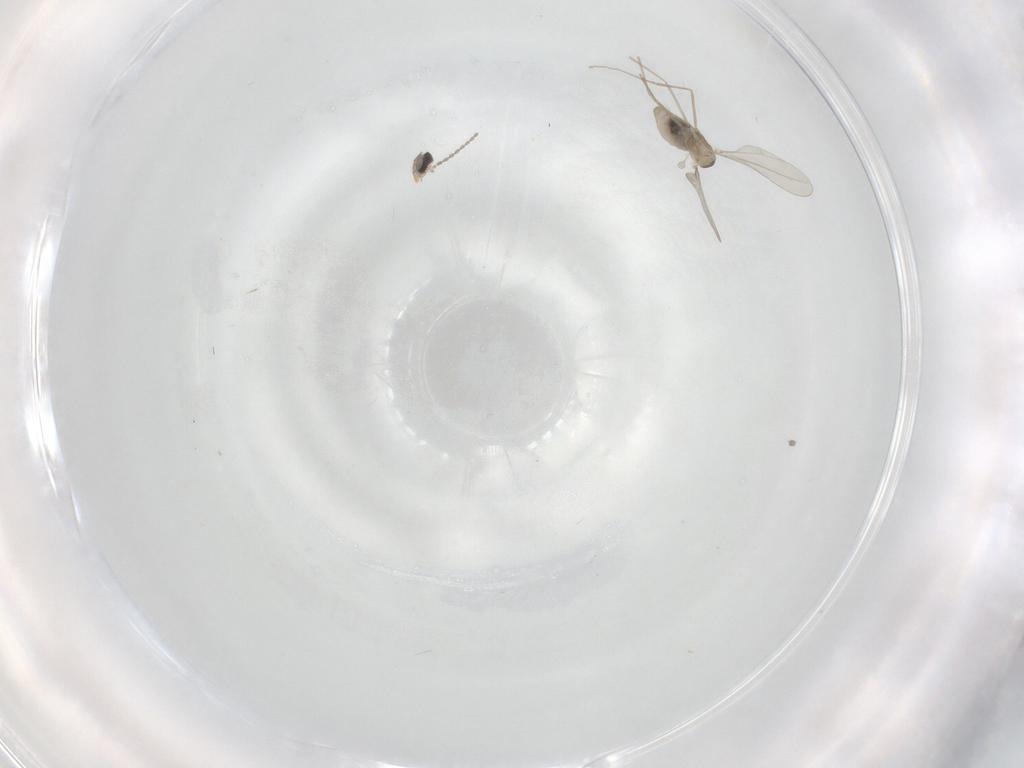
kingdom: Animalia
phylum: Arthropoda
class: Insecta
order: Diptera
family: Cecidomyiidae
